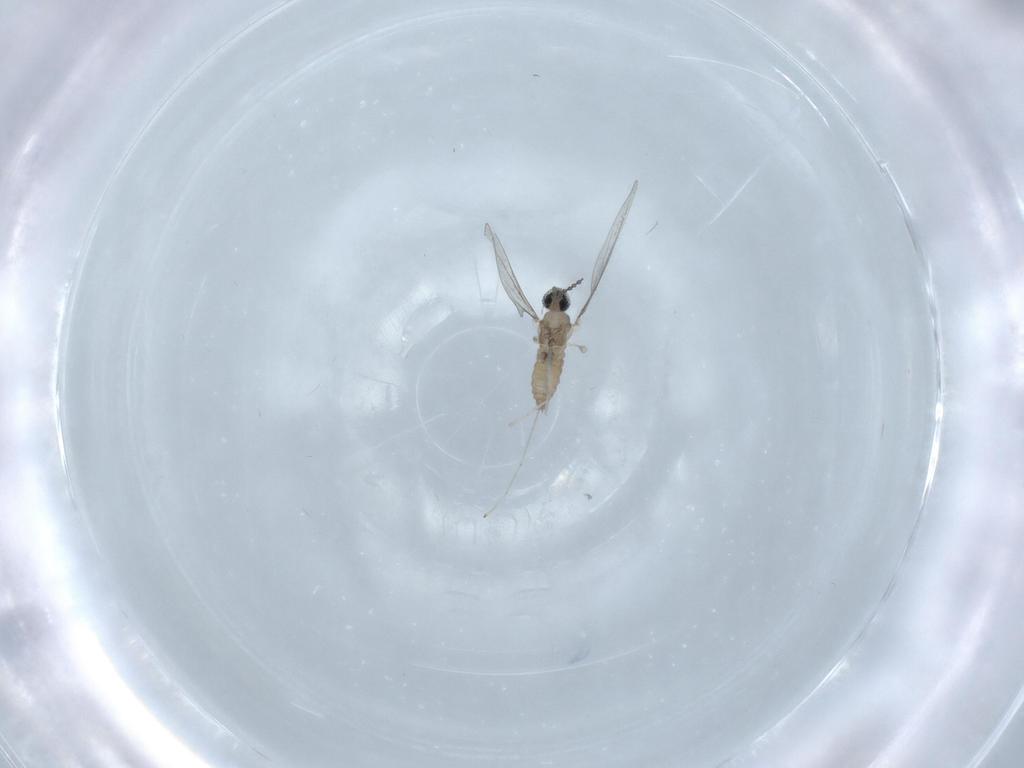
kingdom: Animalia
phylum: Arthropoda
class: Insecta
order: Diptera
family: Cecidomyiidae
